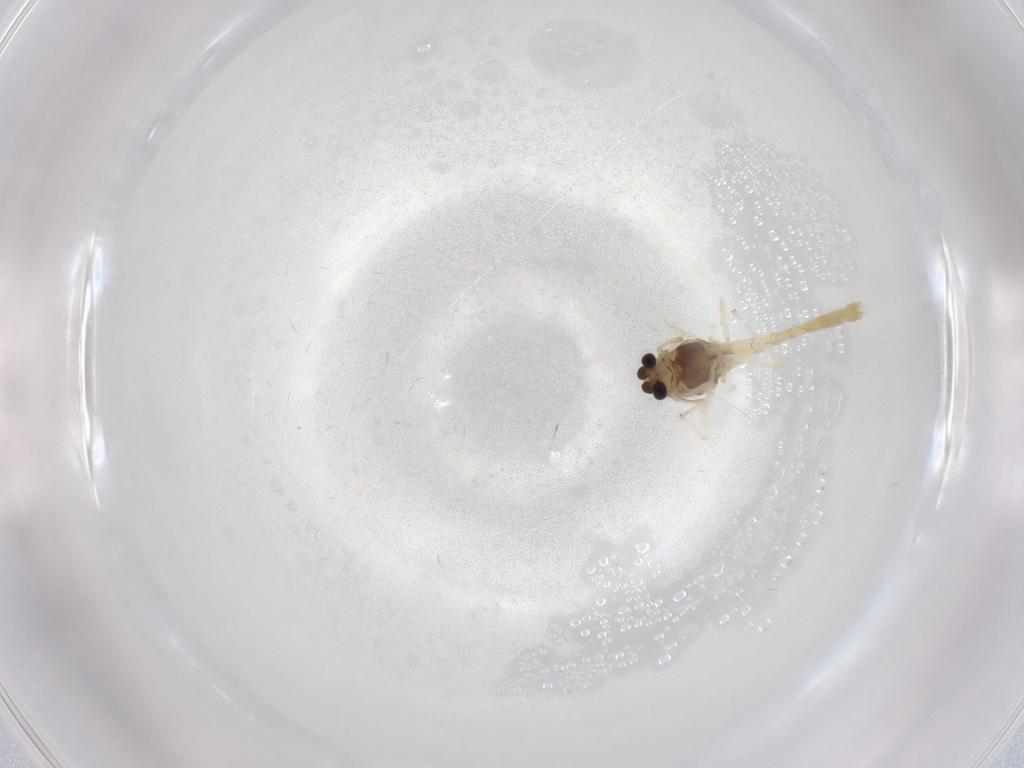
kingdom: Animalia
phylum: Arthropoda
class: Insecta
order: Diptera
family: Chironomidae
